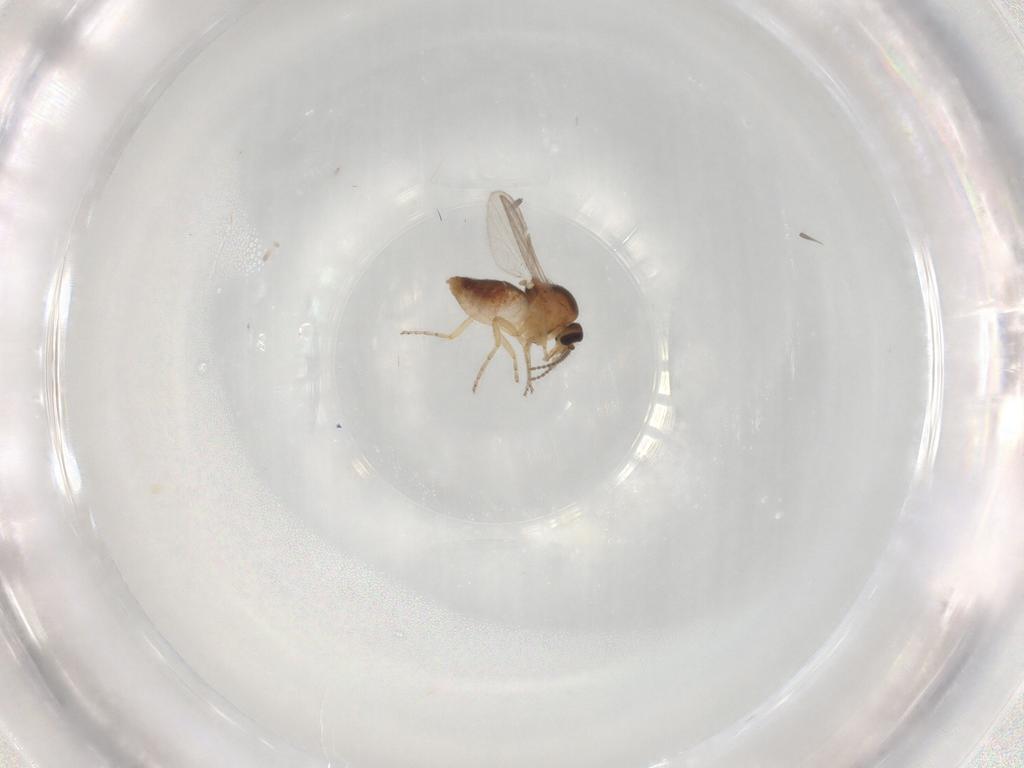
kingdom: Animalia
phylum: Arthropoda
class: Insecta
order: Diptera
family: Ceratopogonidae
